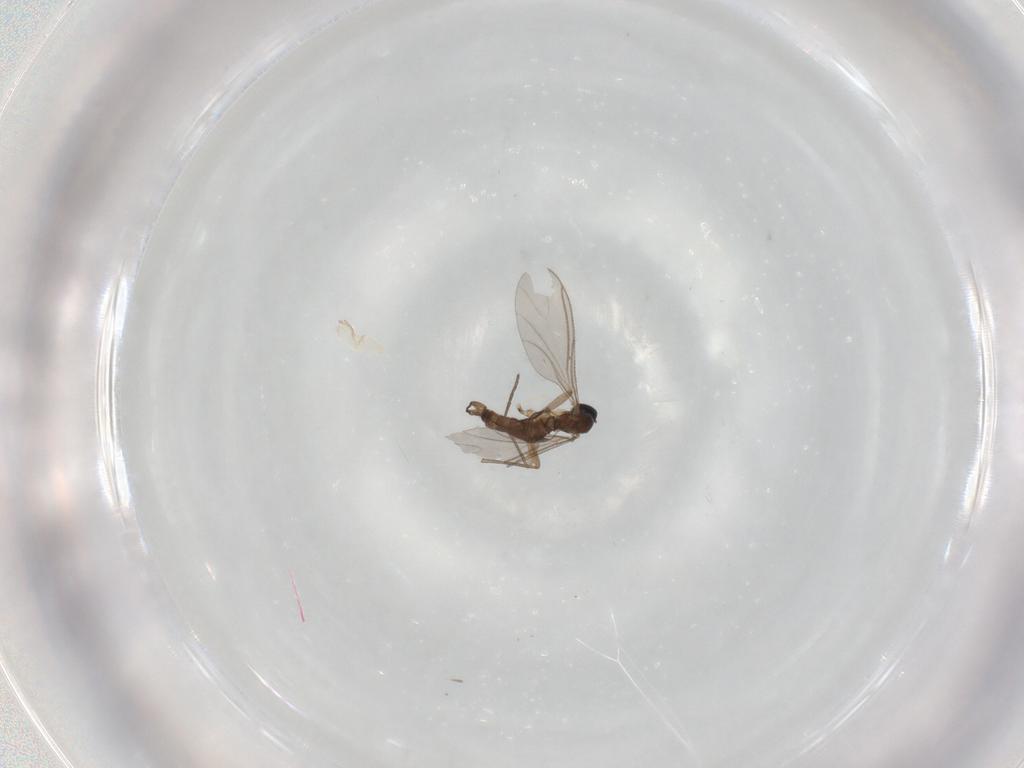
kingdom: Animalia
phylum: Arthropoda
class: Insecta
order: Diptera
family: Sciaridae
